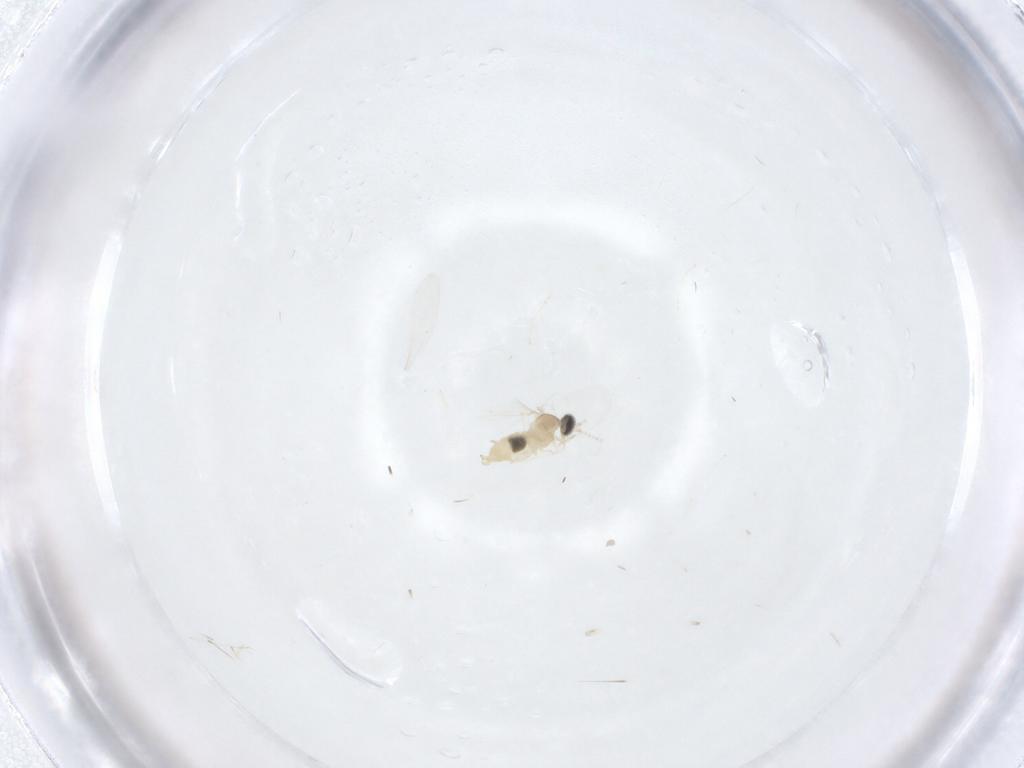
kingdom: Animalia
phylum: Arthropoda
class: Insecta
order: Diptera
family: Cecidomyiidae
